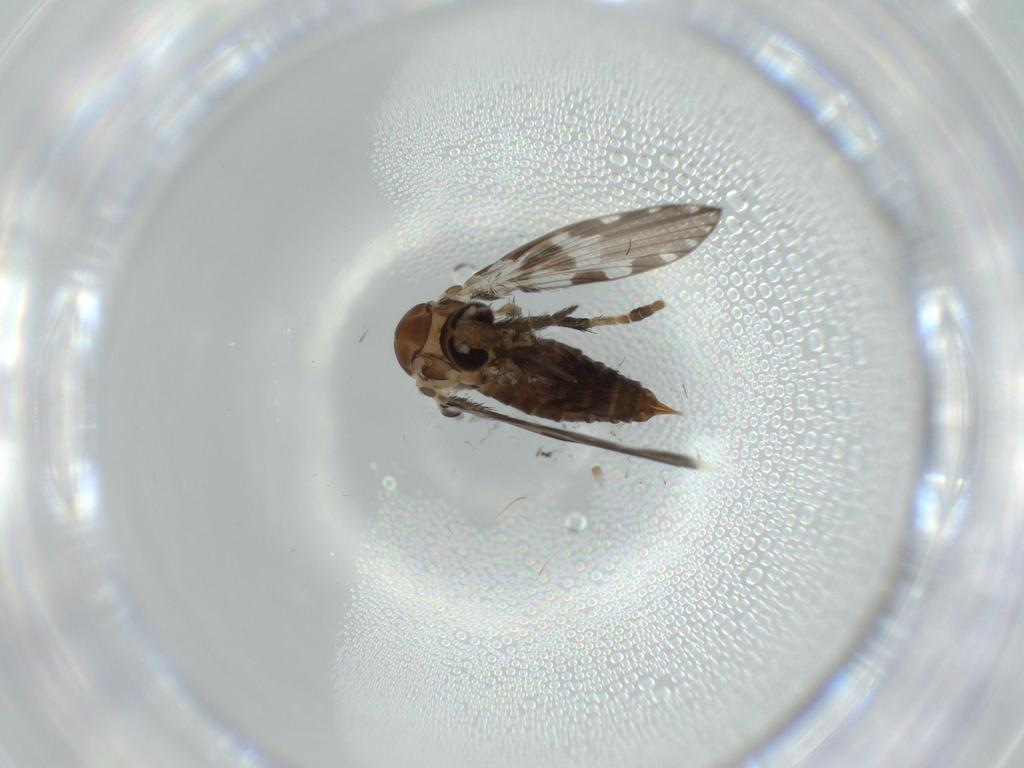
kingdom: Animalia
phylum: Arthropoda
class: Insecta
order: Diptera
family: Psychodidae
